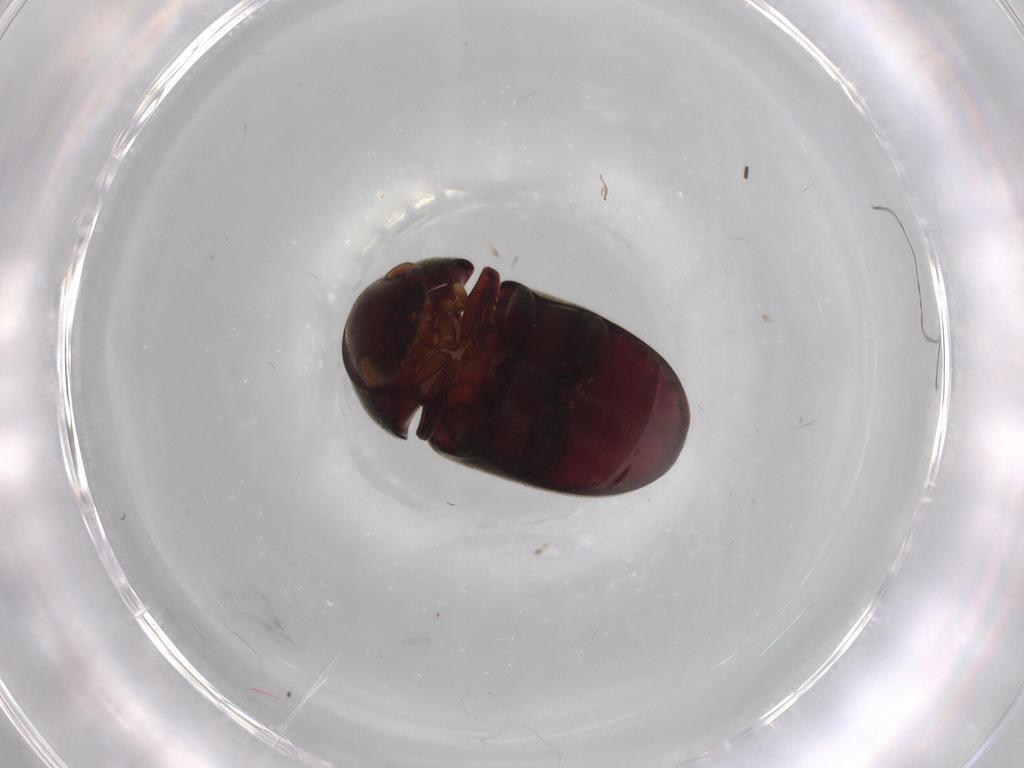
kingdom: Animalia
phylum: Arthropoda
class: Insecta
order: Coleoptera
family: Ptinidae
